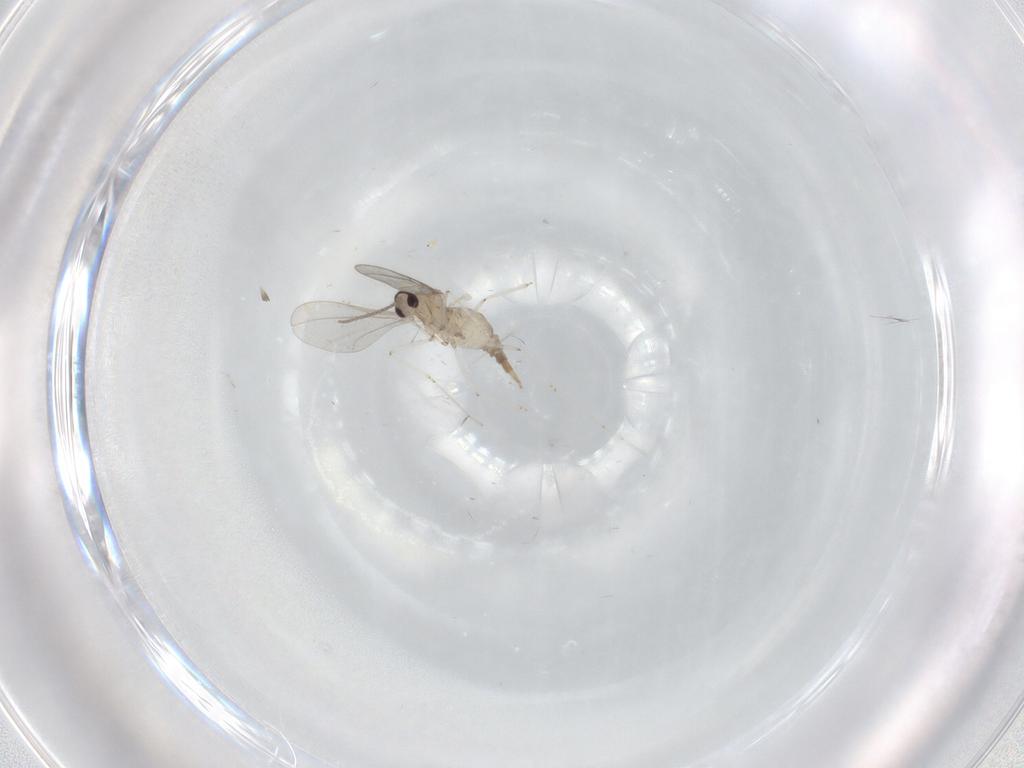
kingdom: Animalia
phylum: Arthropoda
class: Insecta
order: Diptera
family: Cecidomyiidae
